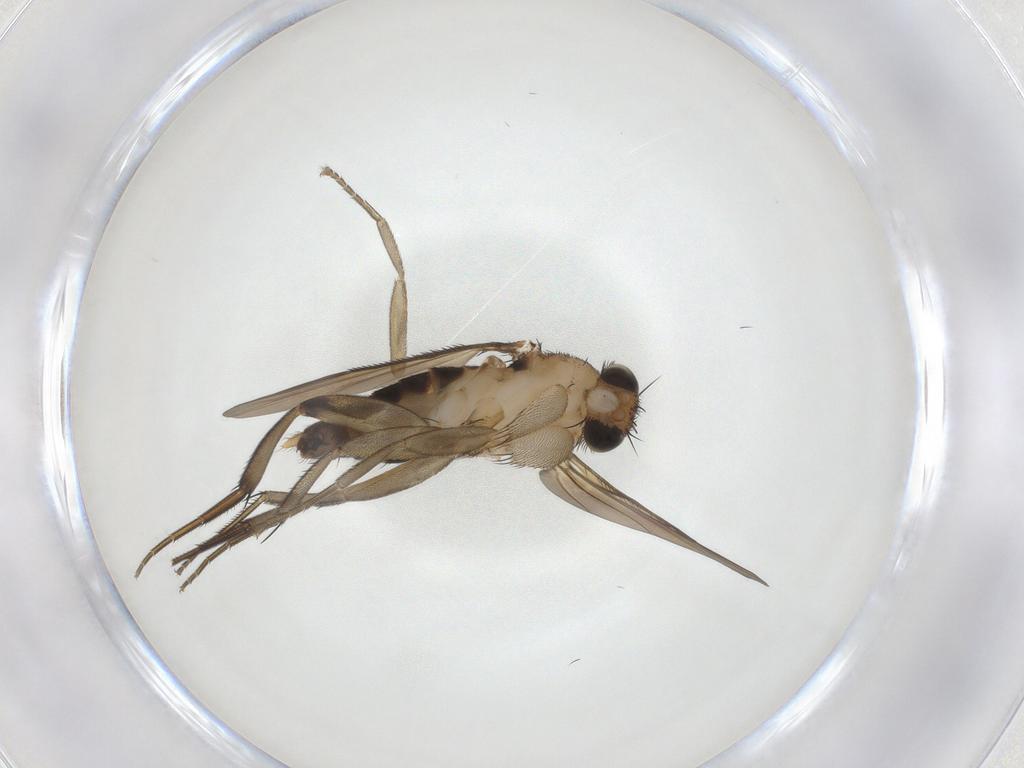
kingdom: Animalia
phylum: Arthropoda
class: Insecta
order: Diptera
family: Phoridae
